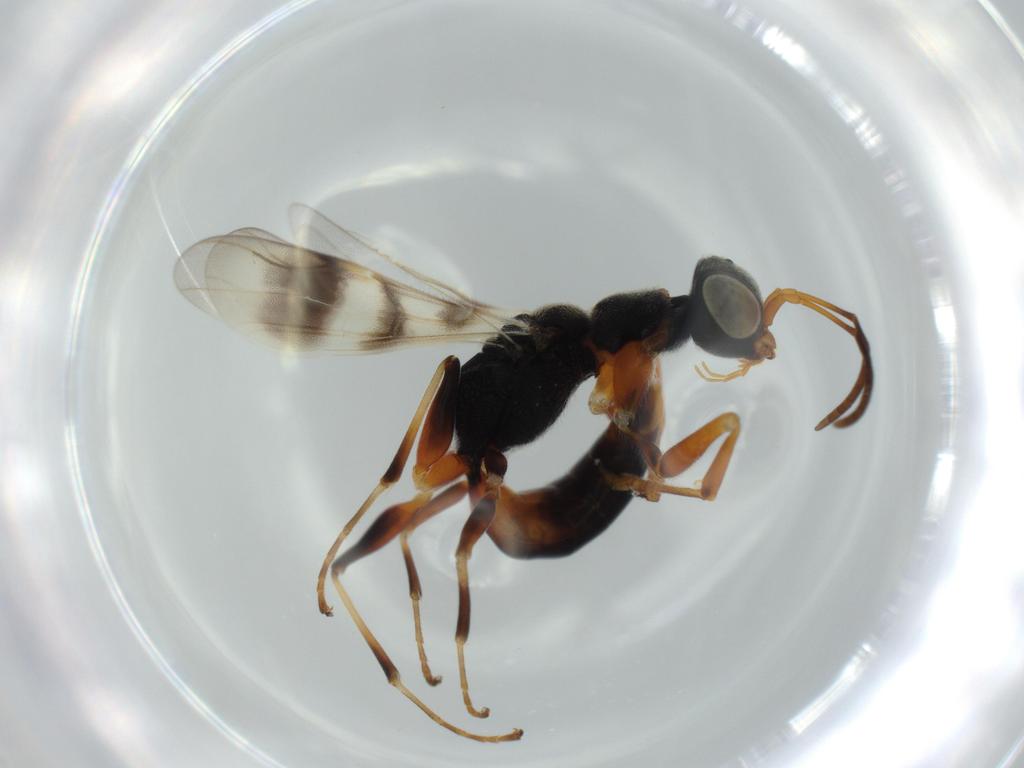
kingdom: Animalia
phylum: Arthropoda
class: Insecta
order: Hymenoptera
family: Dryinidae
